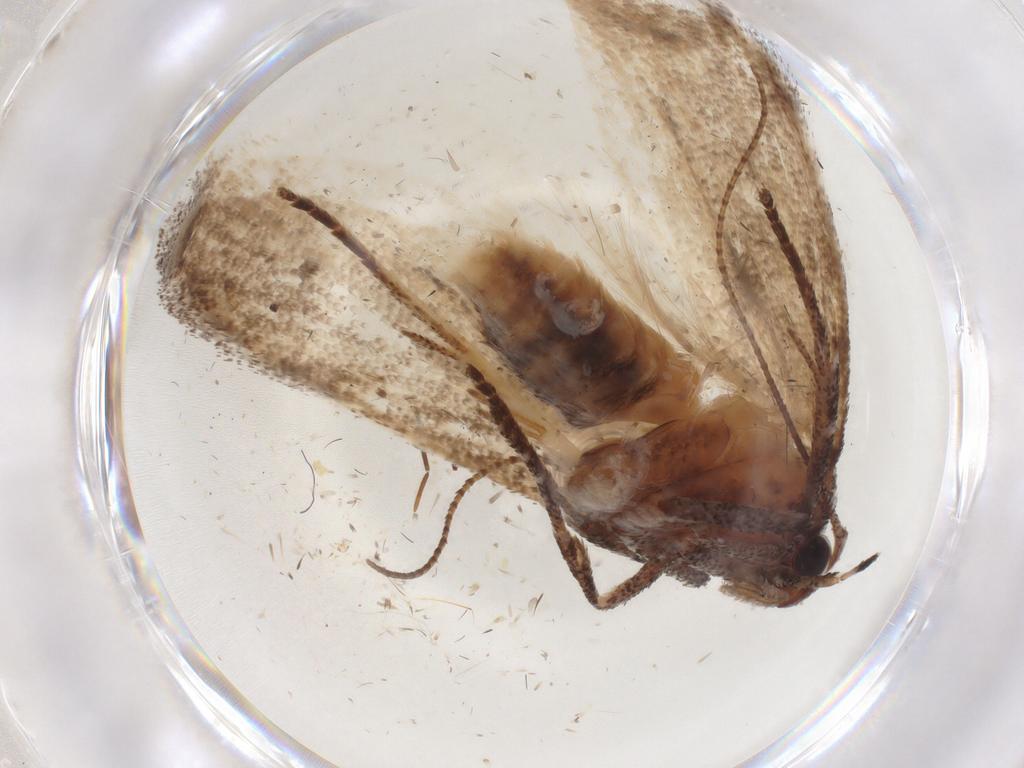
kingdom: Animalia
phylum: Arthropoda
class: Insecta
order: Lepidoptera
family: Cosmopterigidae
